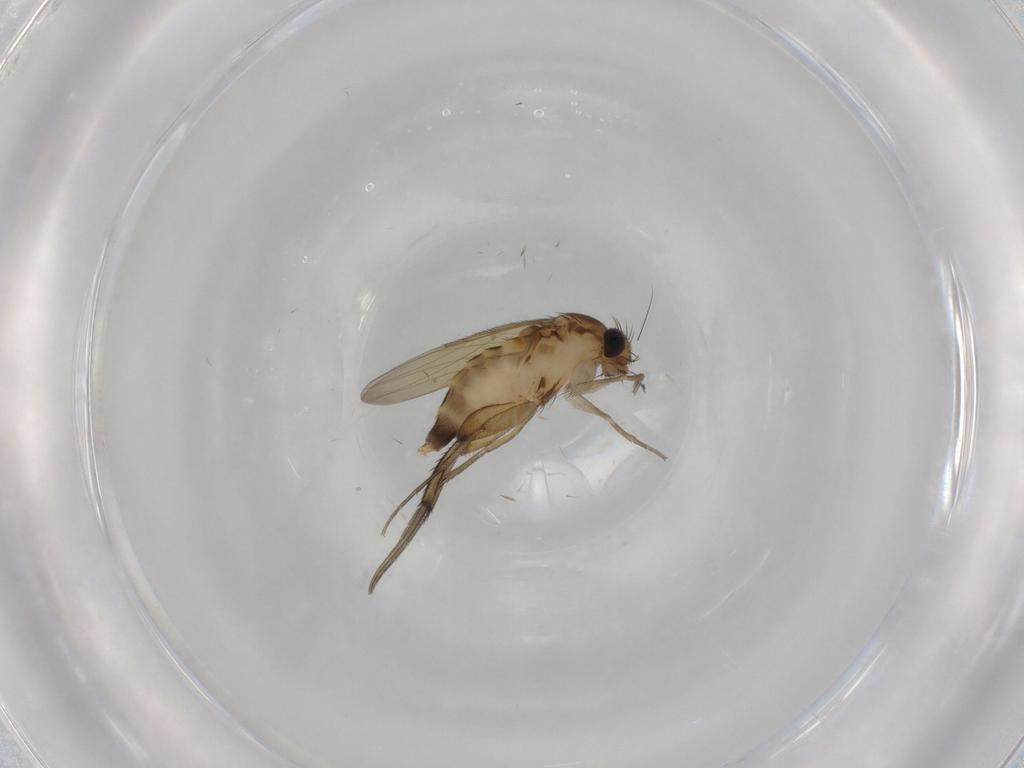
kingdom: Animalia
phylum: Arthropoda
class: Insecta
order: Diptera
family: Phoridae
